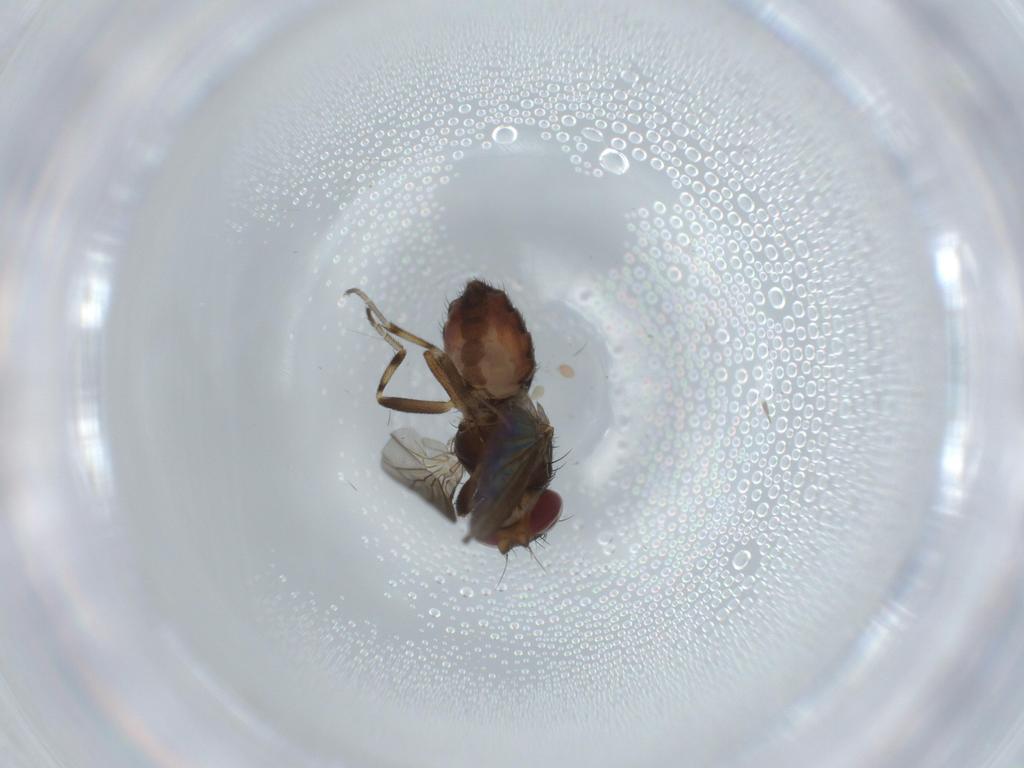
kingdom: Animalia
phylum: Arthropoda
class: Insecta
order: Diptera
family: Heleomyzidae
